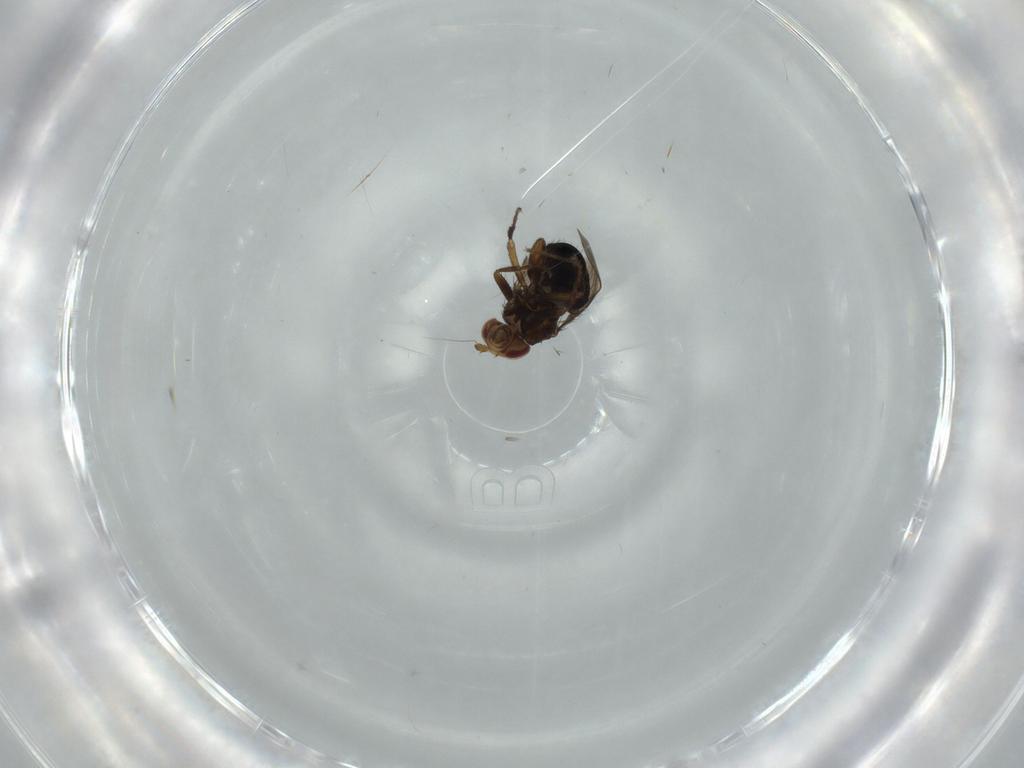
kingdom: Animalia
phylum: Arthropoda
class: Insecta
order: Diptera
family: Sphaeroceridae
